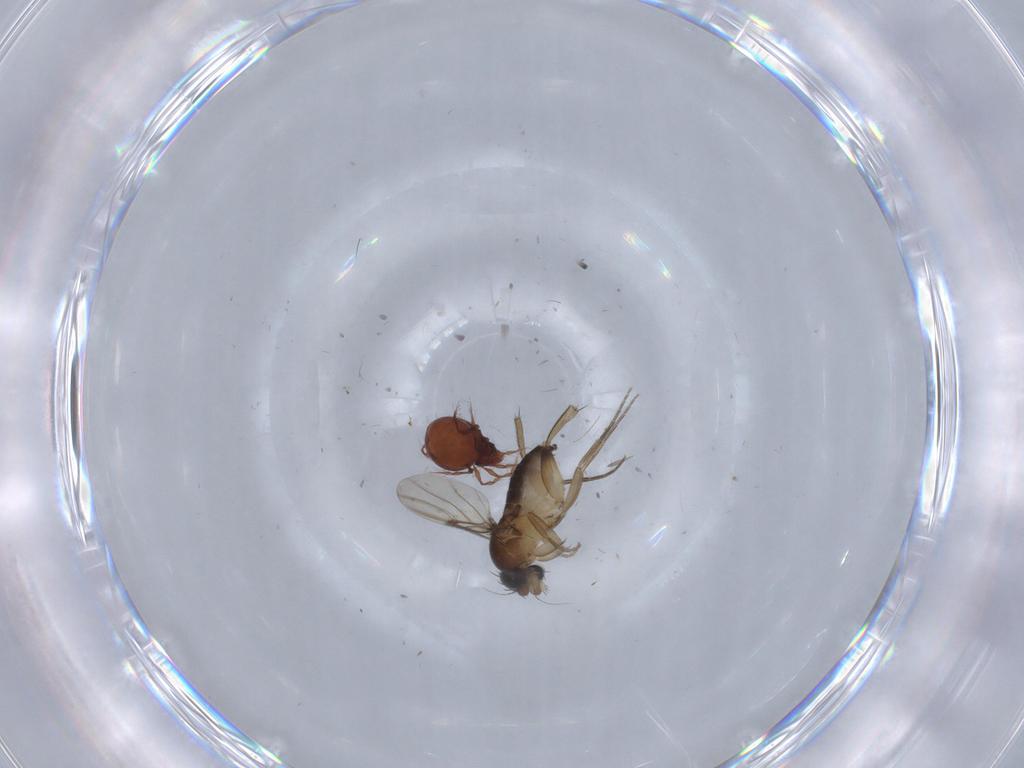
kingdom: Animalia
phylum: Arthropoda
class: Insecta
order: Diptera
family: Phoridae
